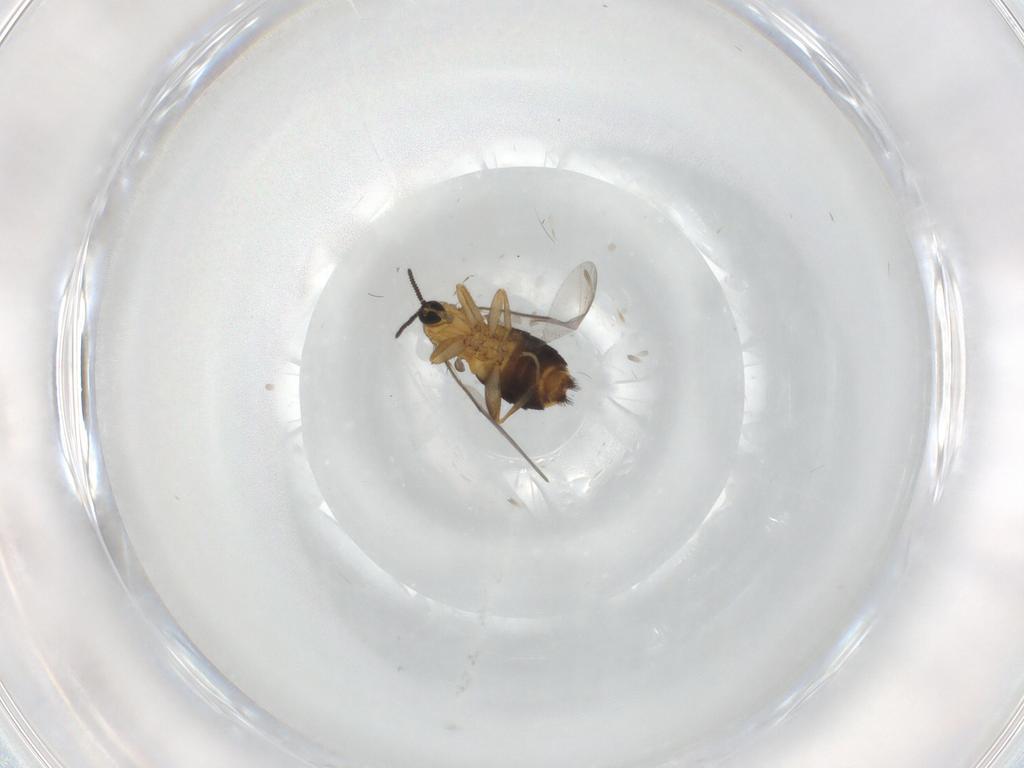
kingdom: Animalia
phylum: Arthropoda
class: Insecta
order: Diptera
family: Scatopsidae
